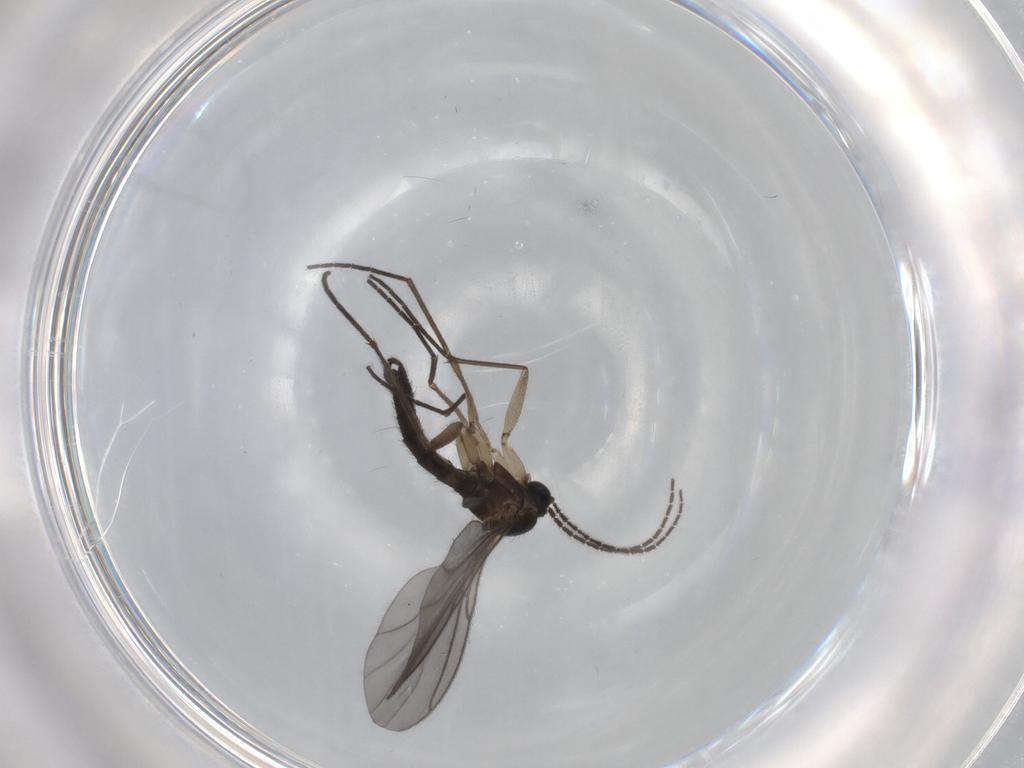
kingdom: Animalia
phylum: Arthropoda
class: Insecta
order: Diptera
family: Sciaridae
